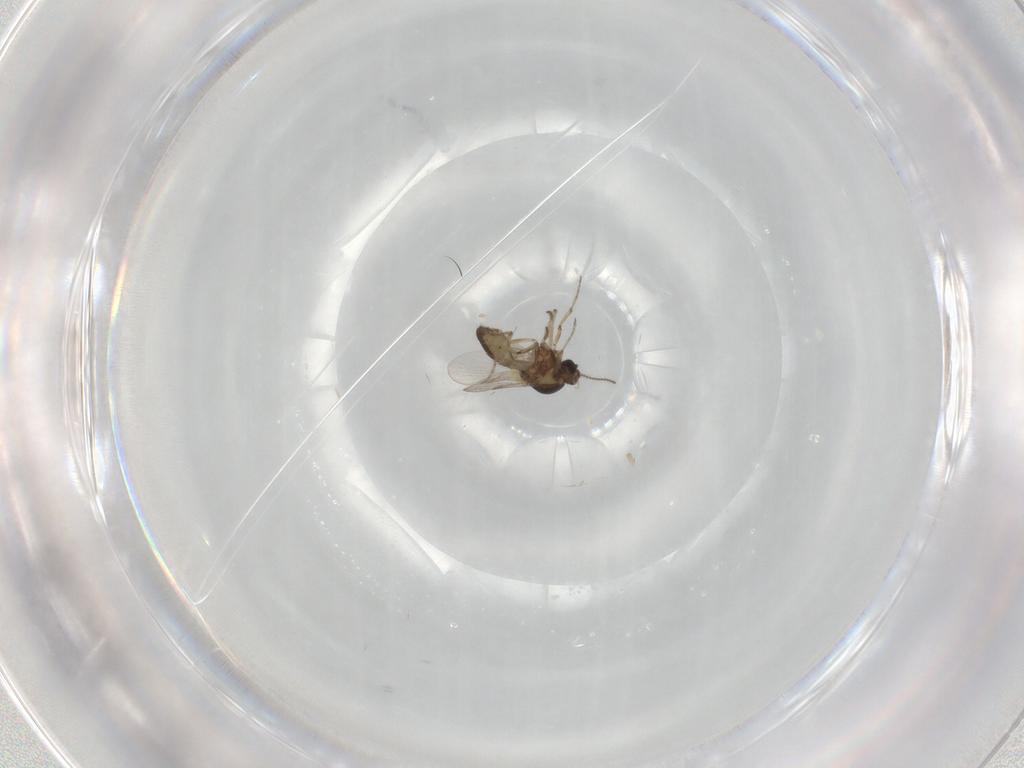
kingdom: Animalia
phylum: Arthropoda
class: Insecta
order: Diptera
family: Ceratopogonidae
